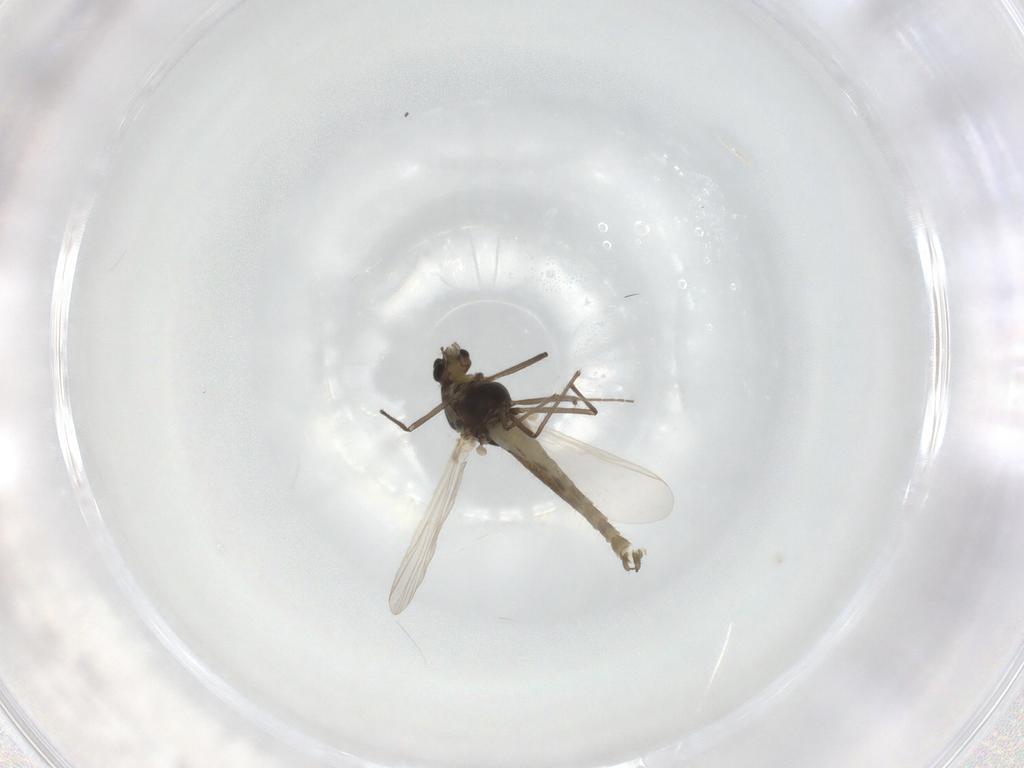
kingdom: Animalia
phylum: Arthropoda
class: Insecta
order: Diptera
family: Chironomidae
